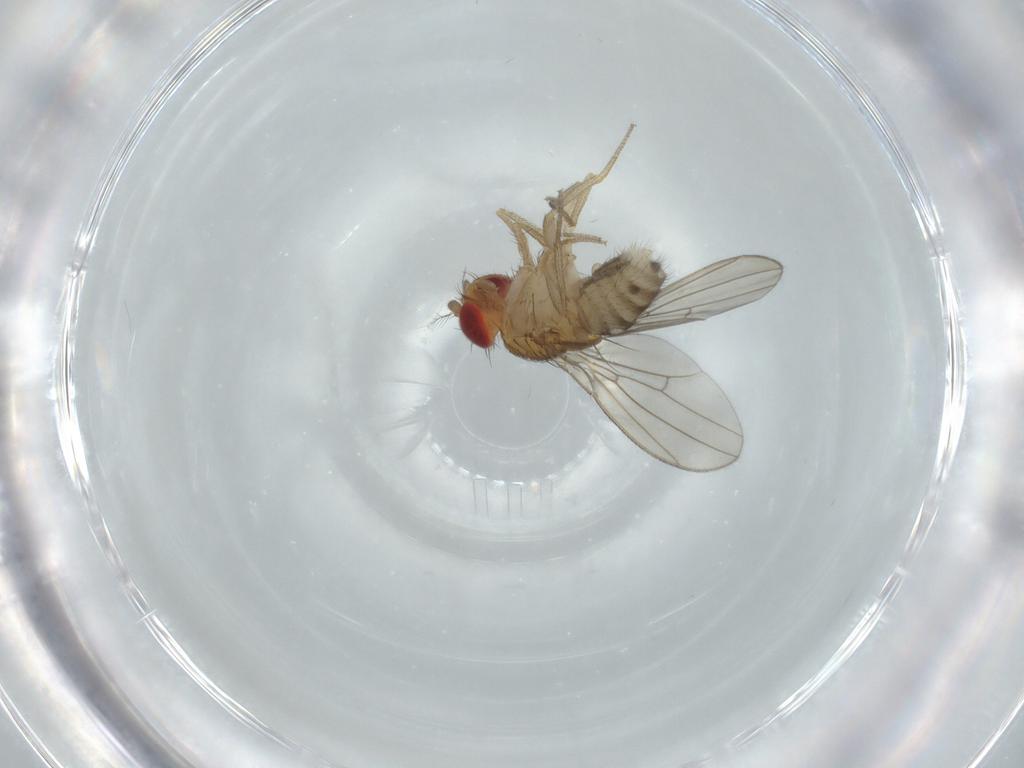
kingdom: Animalia
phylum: Arthropoda
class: Insecta
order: Diptera
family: Drosophilidae
